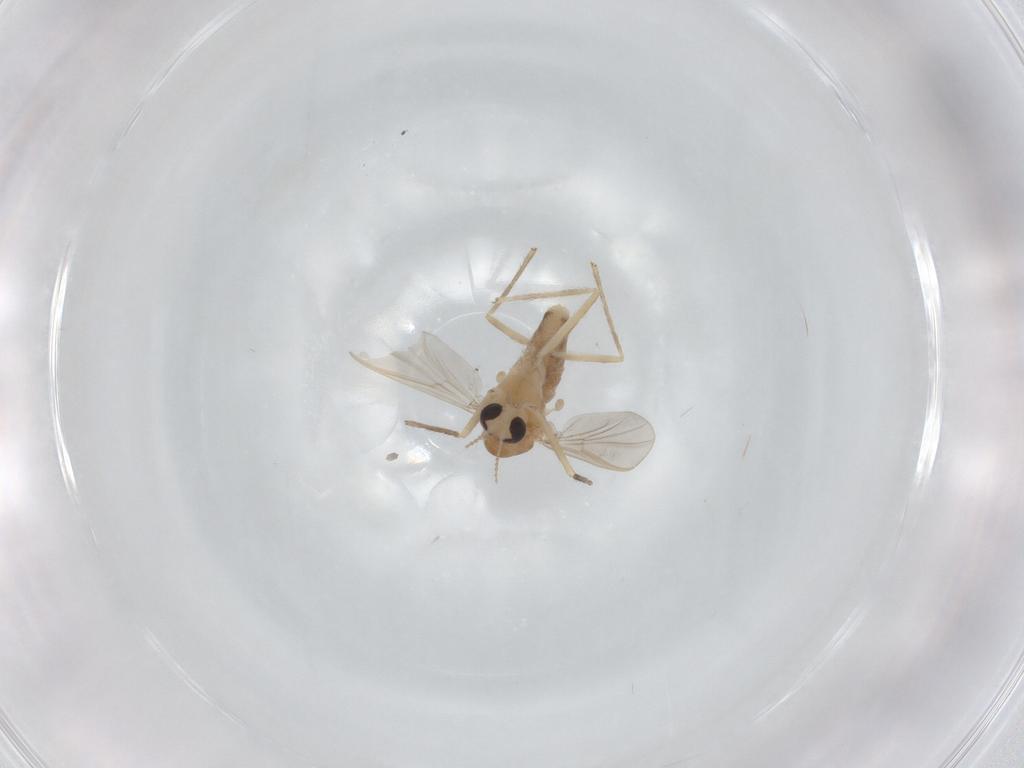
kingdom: Animalia
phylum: Arthropoda
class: Insecta
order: Diptera
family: Chironomidae
